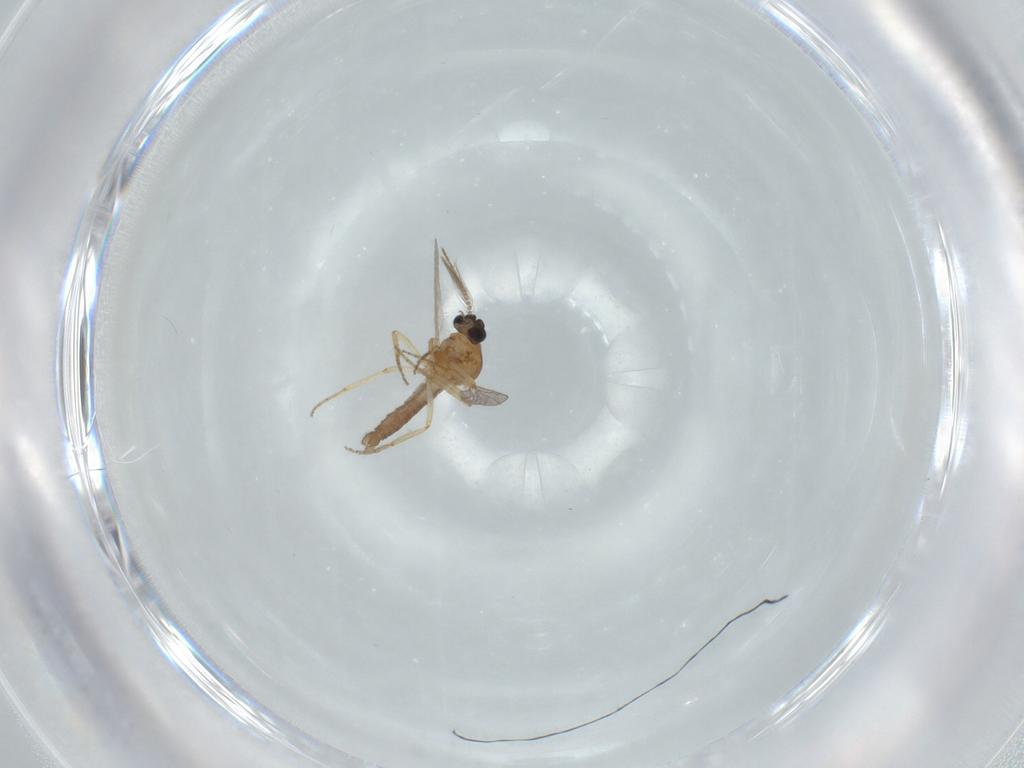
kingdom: Animalia
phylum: Arthropoda
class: Insecta
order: Diptera
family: Ceratopogonidae
